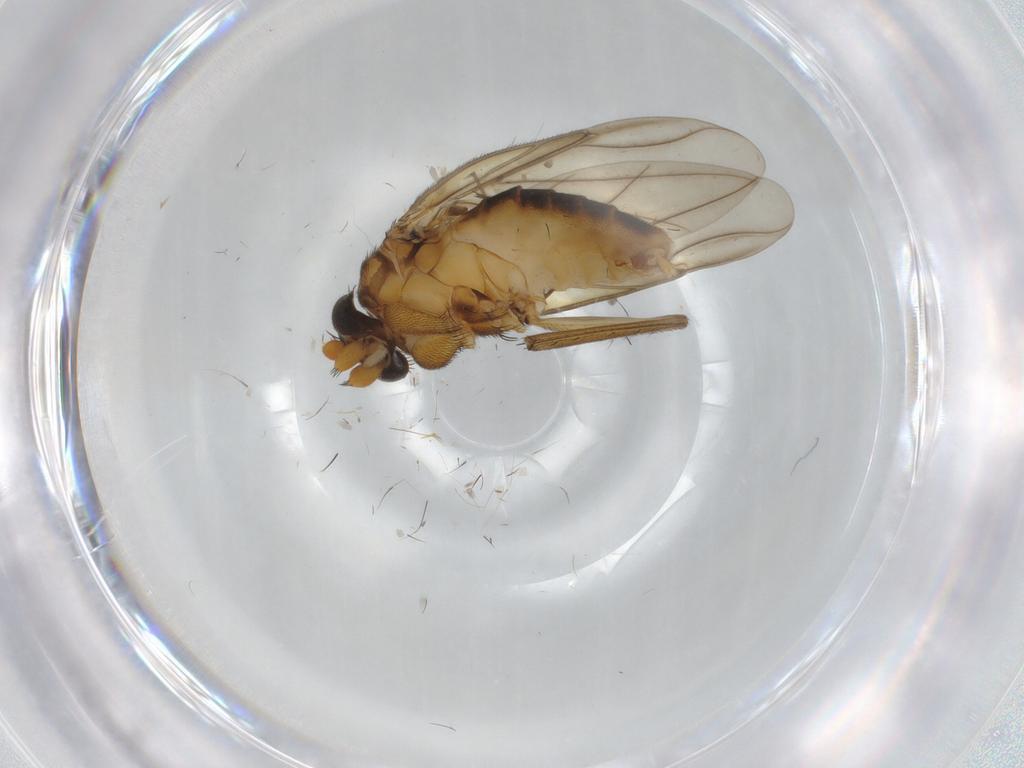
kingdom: Animalia
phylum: Arthropoda
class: Insecta
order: Diptera
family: Phoridae
